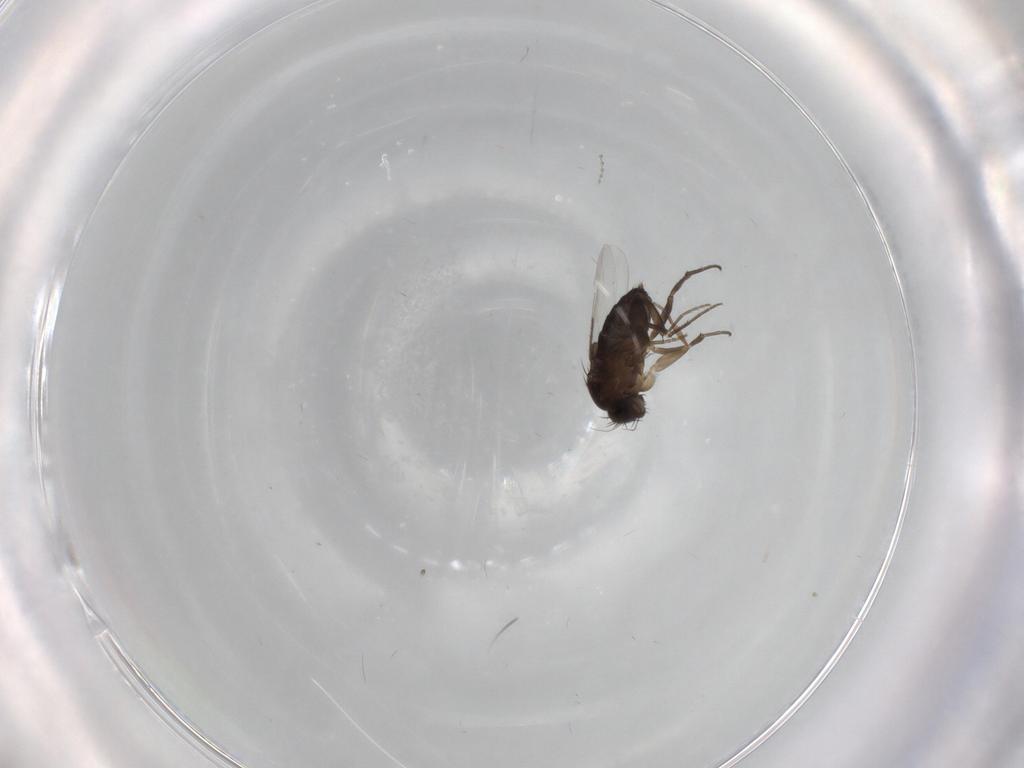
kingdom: Animalia
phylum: Arthropoda
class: Insecta
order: Diptera
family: Phoridae
